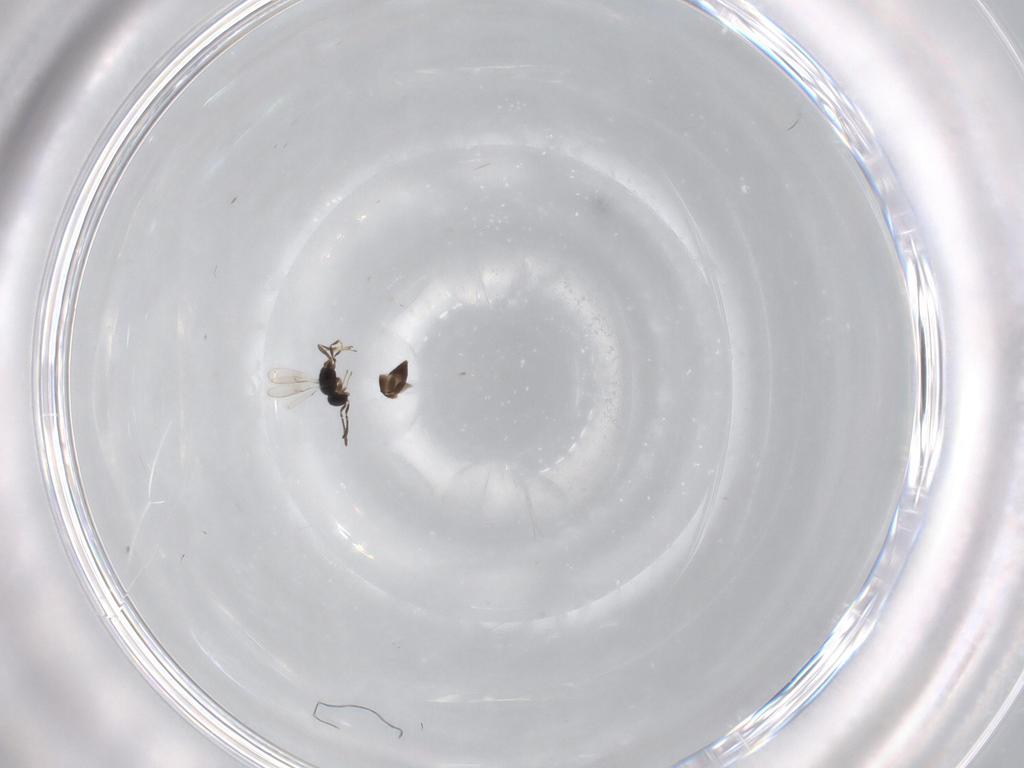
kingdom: Animalia
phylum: Arthropoda
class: Insecta
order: Hymenoptera
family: Scelionidae
